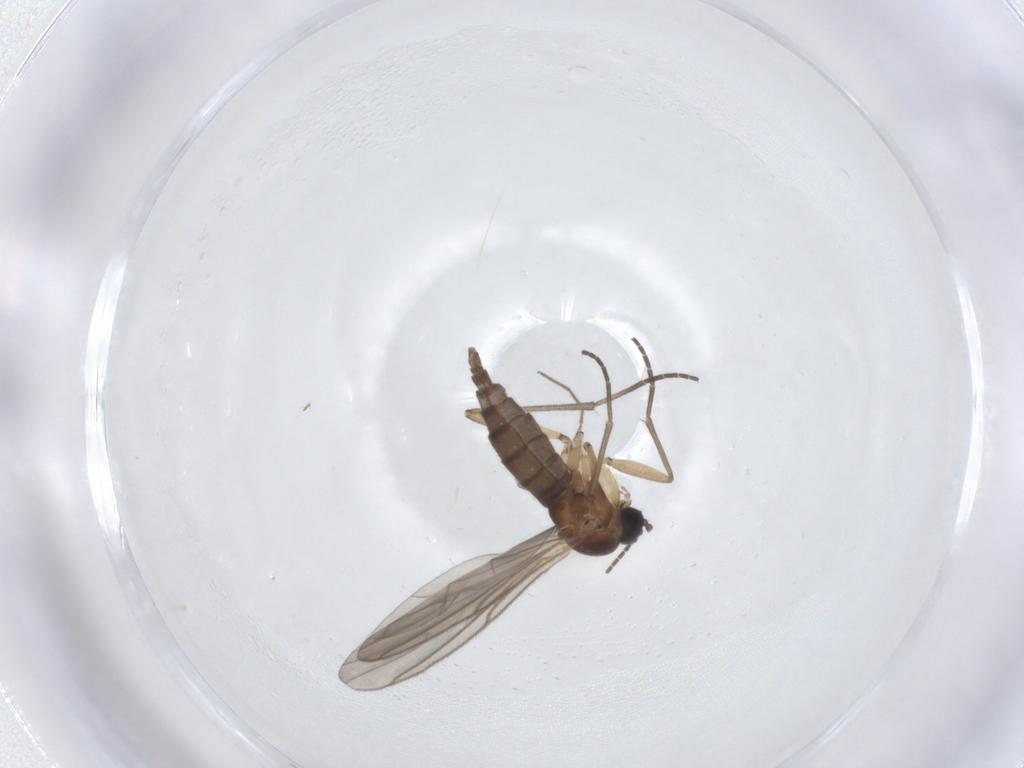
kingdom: Animalia
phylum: Arthropoda
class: Insecta
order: Diptera
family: Sciaridae
